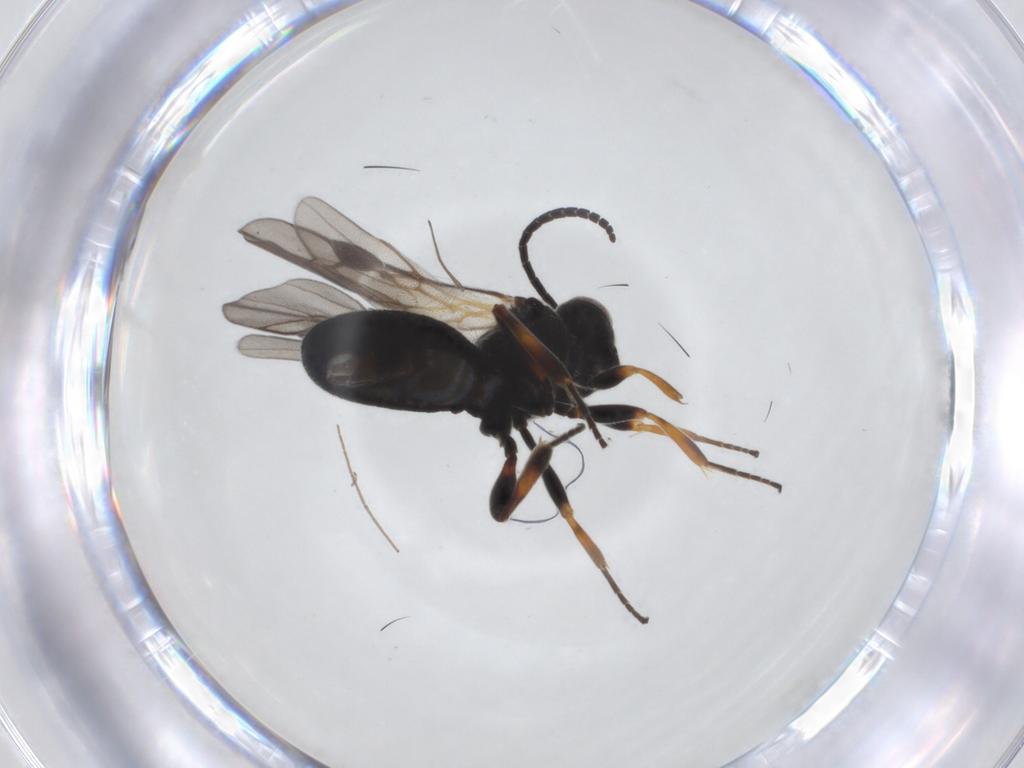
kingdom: Animalia
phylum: Arthropoda
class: Insecta
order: Hymenoptera
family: Braconidae
